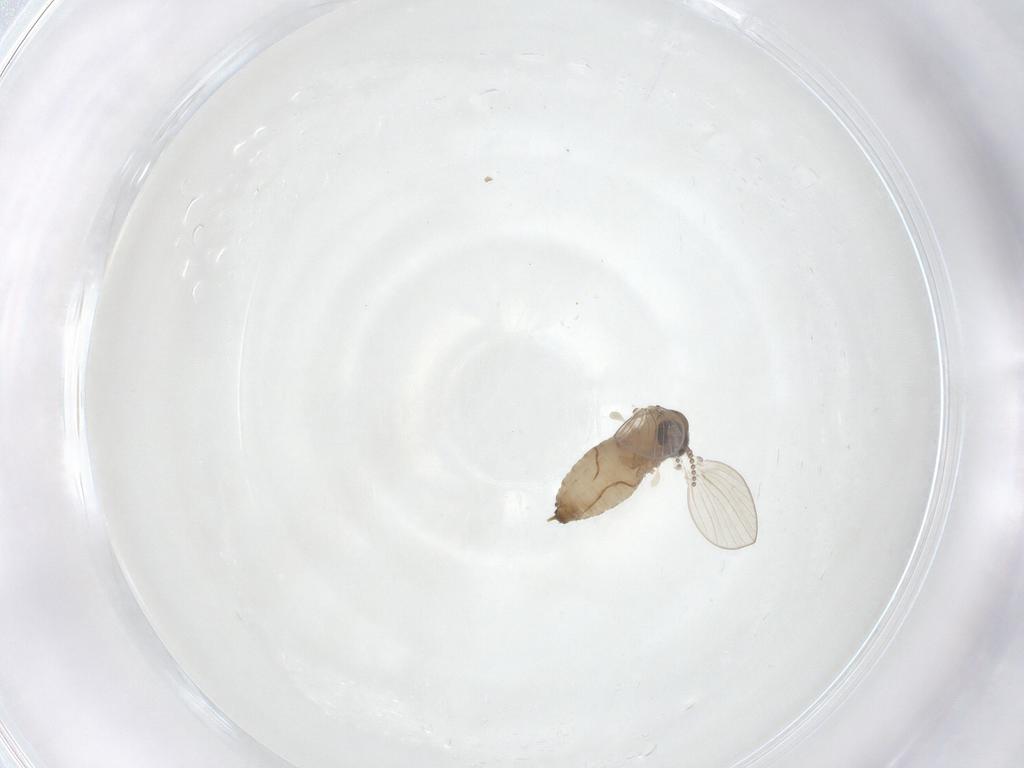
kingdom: Animalia
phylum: Arthropoda
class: Insecta
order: Diptera
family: Psychodidae
